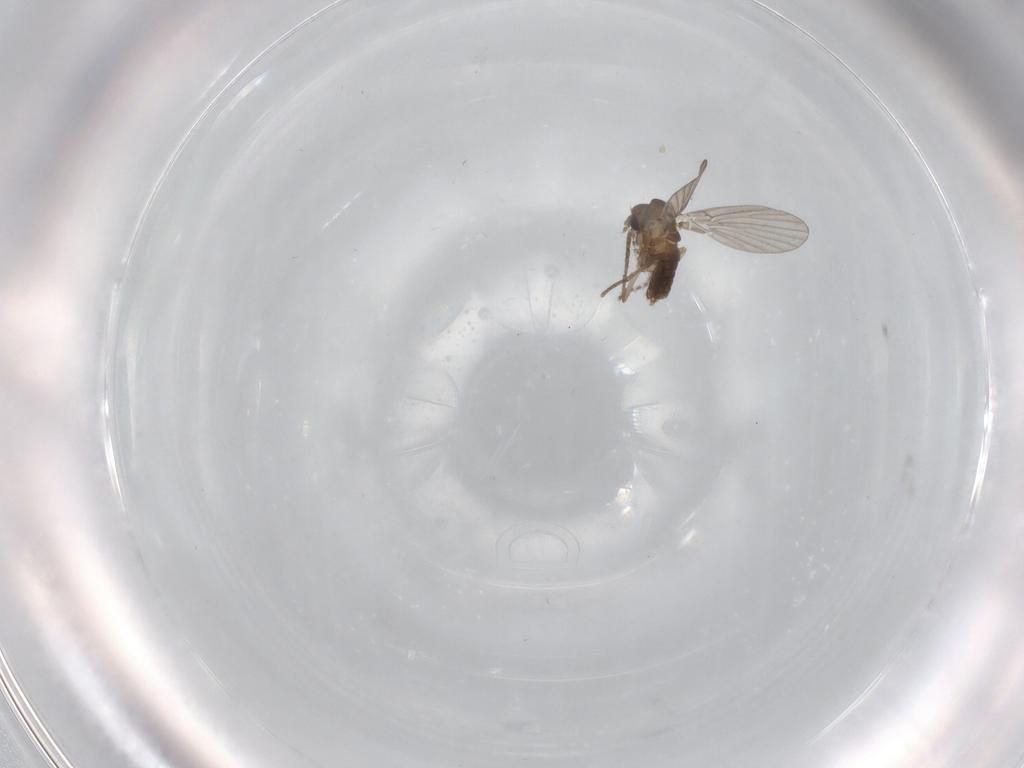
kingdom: Animalia
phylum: Arthropoda
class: Insecta
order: Diptera
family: Psychodidae
